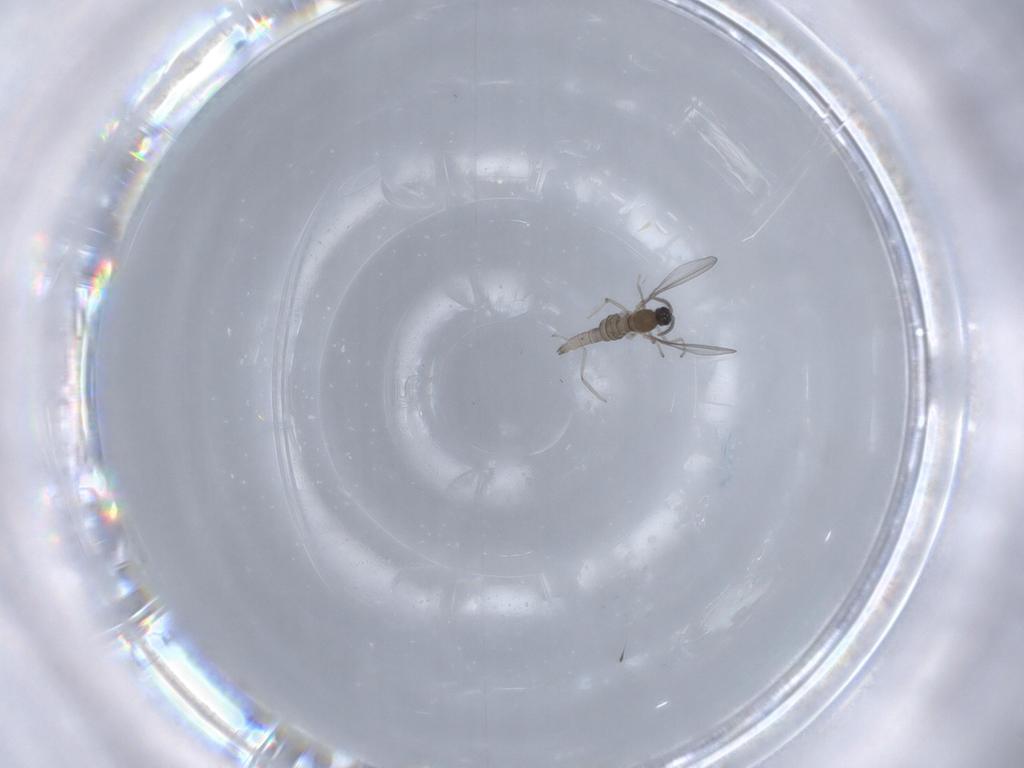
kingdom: Animalia
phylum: Arthropoda
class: Insecta
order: Diptera
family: Cecidomyiidae
